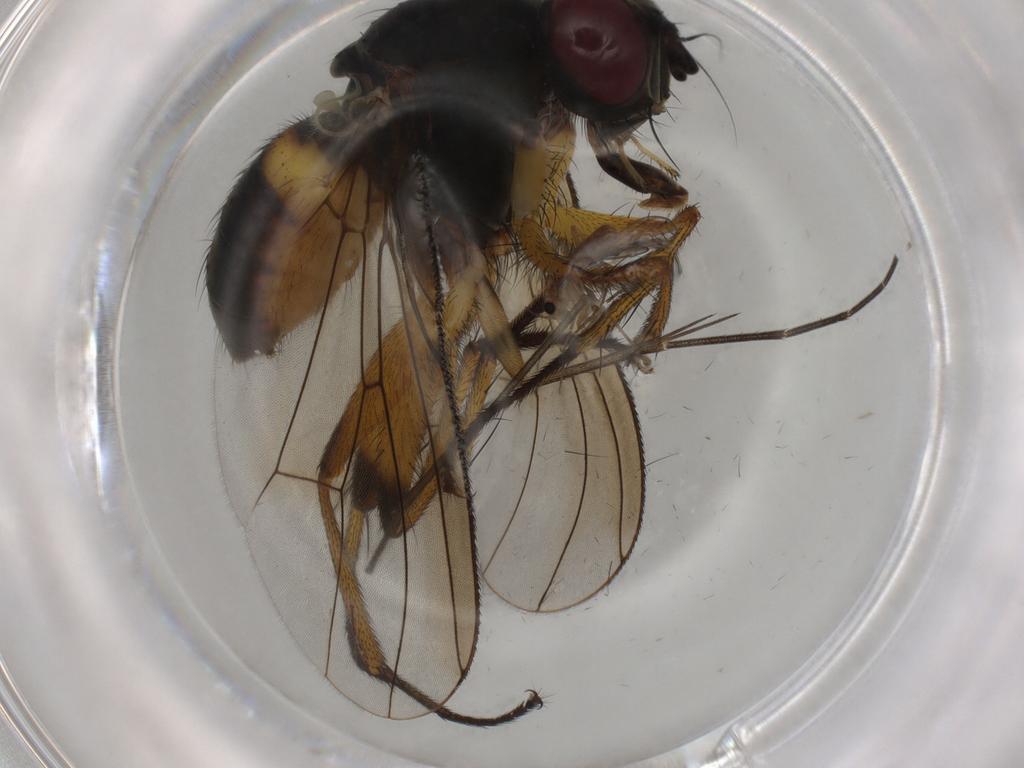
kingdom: Animalia
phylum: Arthropoda
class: Insecta
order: Diptera
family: Muscidae
